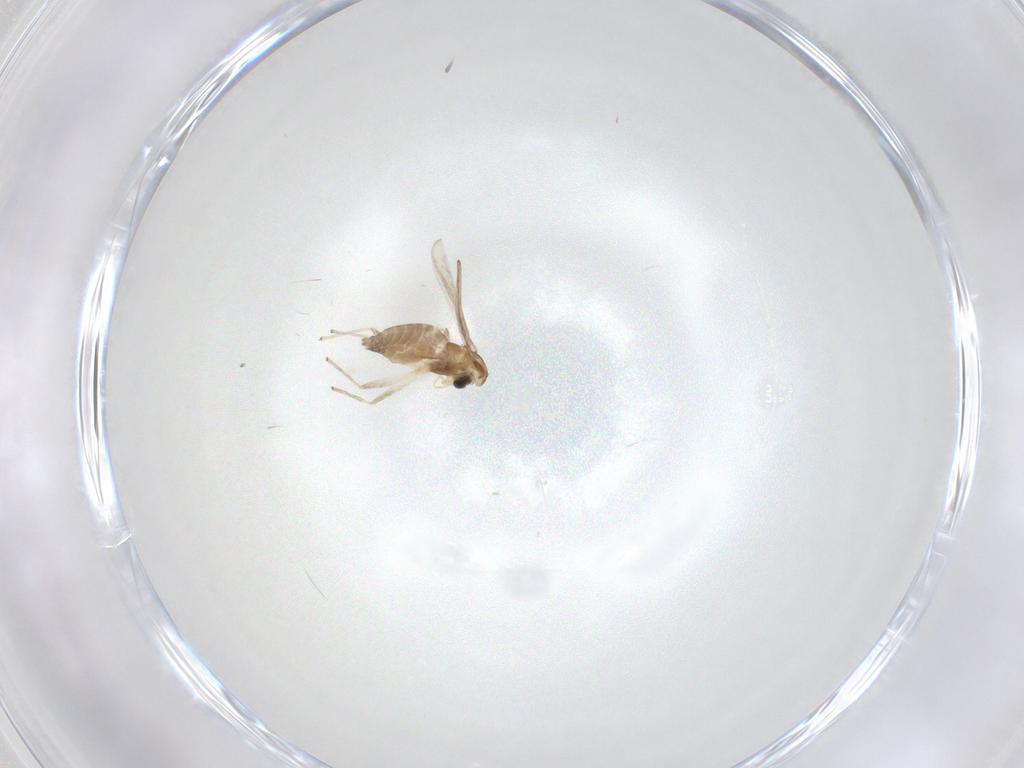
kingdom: Animalia
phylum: Arthropoda
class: Insecta
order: Diptera
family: Chironomidae
